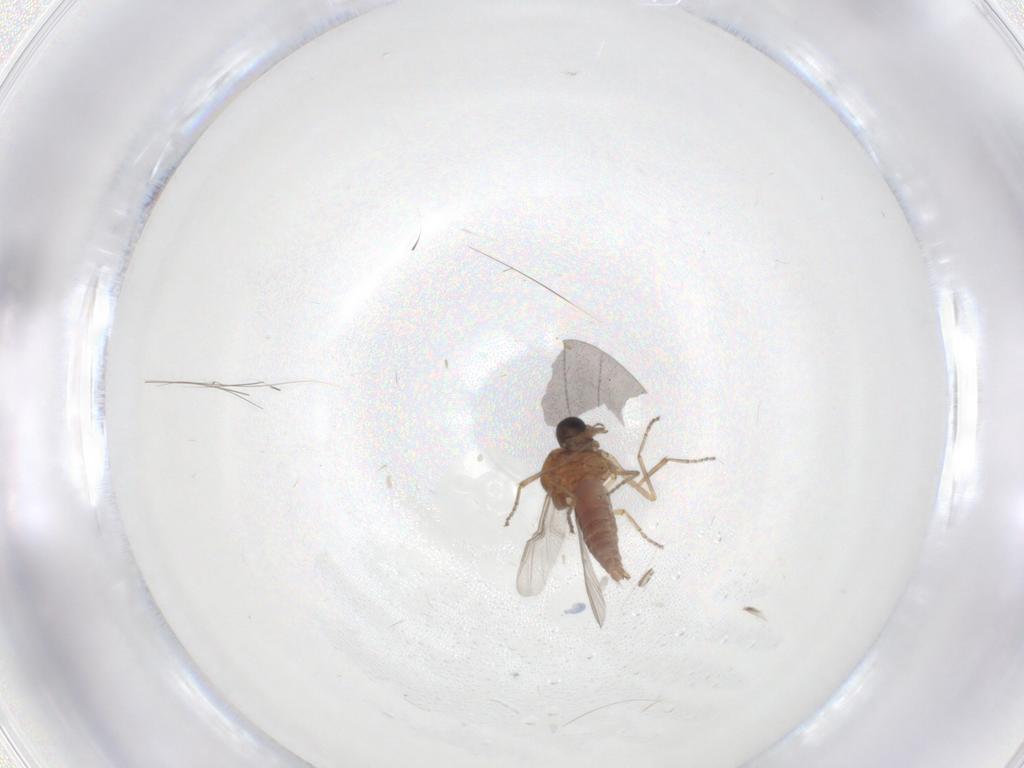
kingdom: Animalia
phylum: Arthropoda
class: Insecta
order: Diptera
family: Ceratopogonidae
